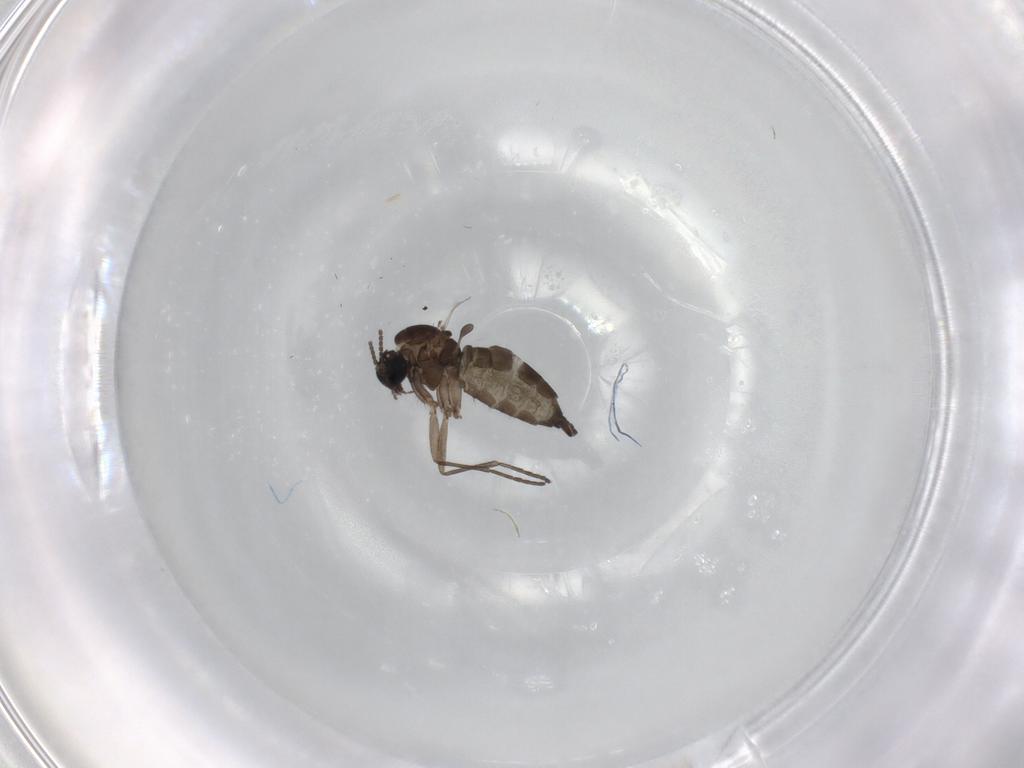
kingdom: Animalia
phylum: Arthropoda
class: Insecta
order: Diptera
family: Sciaridae
